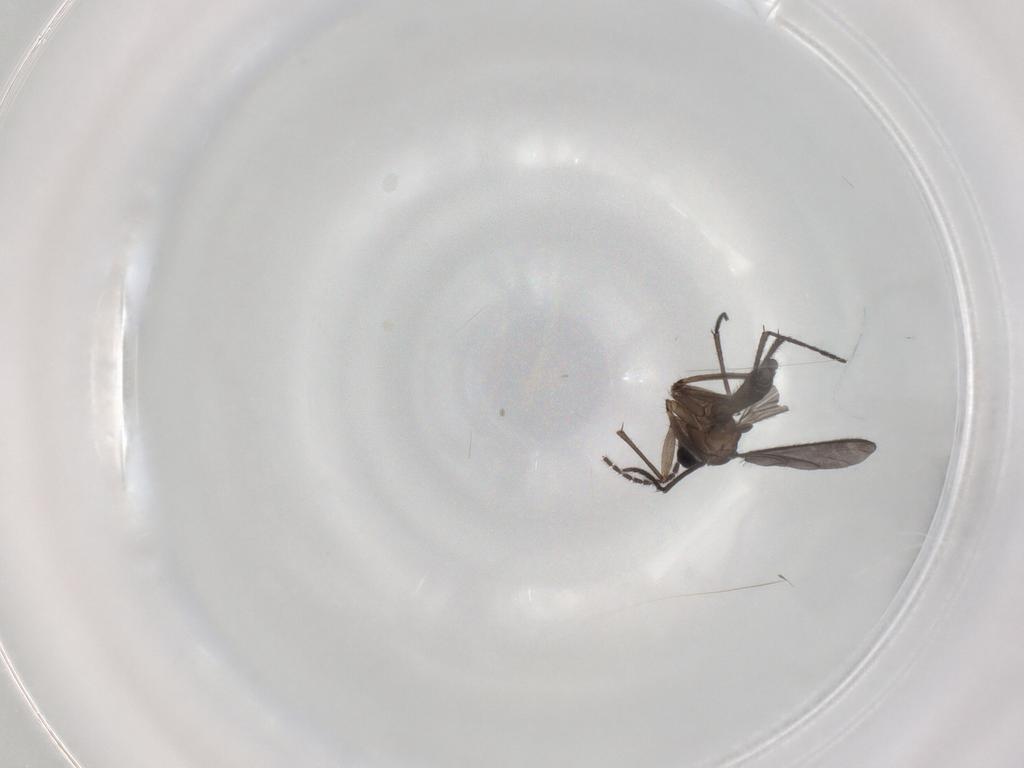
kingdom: Animalia
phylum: Arthropoda
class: Insecta
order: Diptera
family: Sciaridae
